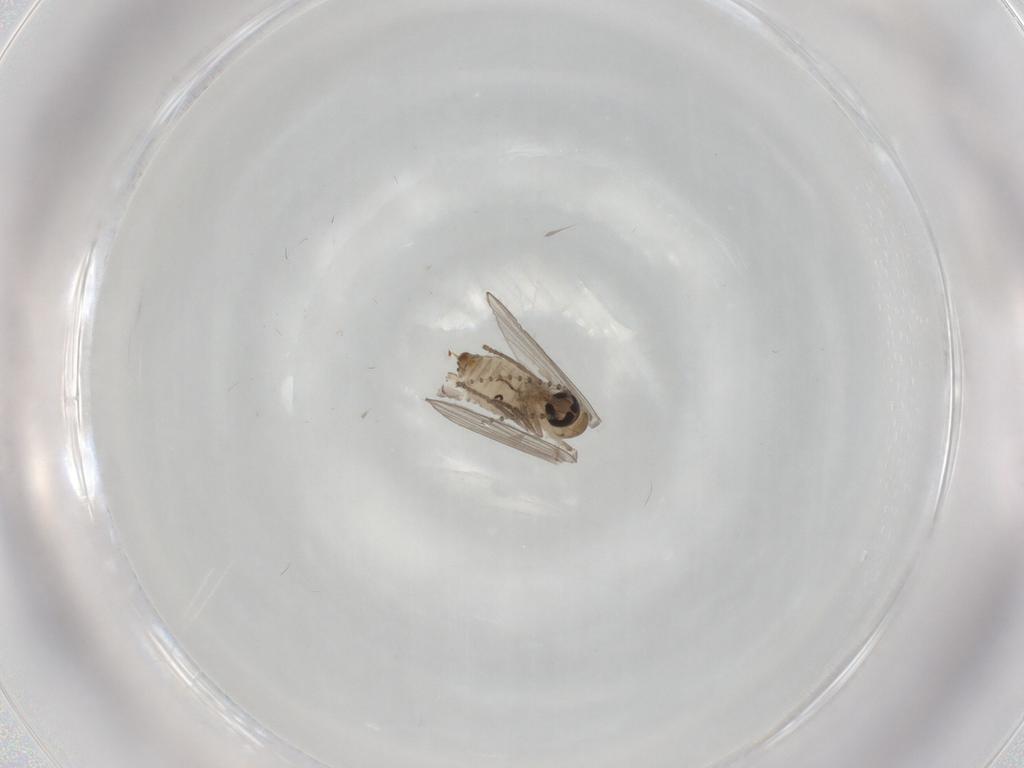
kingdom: Animalia
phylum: Arthropoda
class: Insecta
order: Diptera
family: Psychodidae
